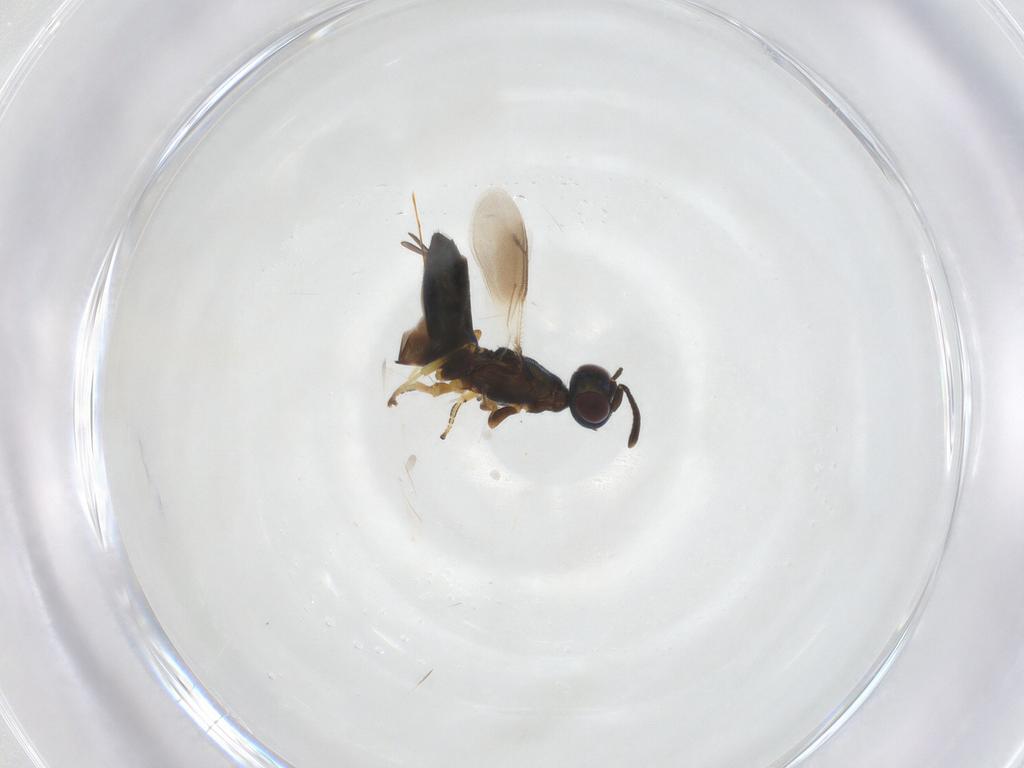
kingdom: Animalia
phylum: Arthropoda
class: Insecta
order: Hymenoptera
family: Eupelmidae
